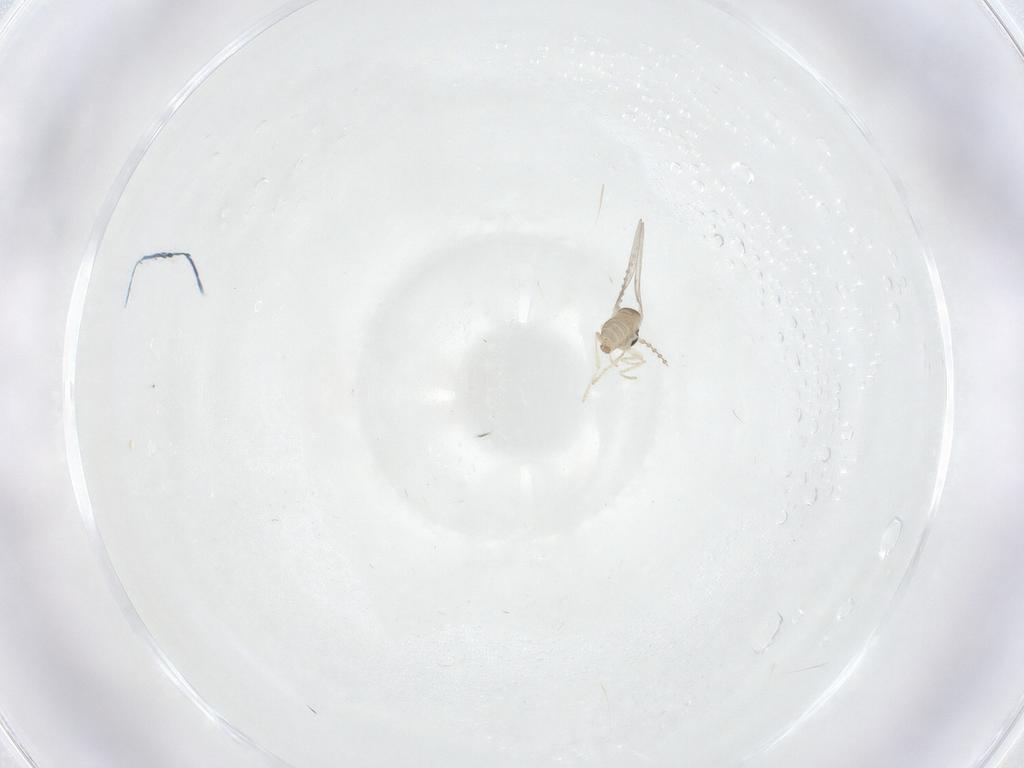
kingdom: Animalia
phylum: Arthropoda
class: Insecta
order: Diptera
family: Cecidomyiidae
